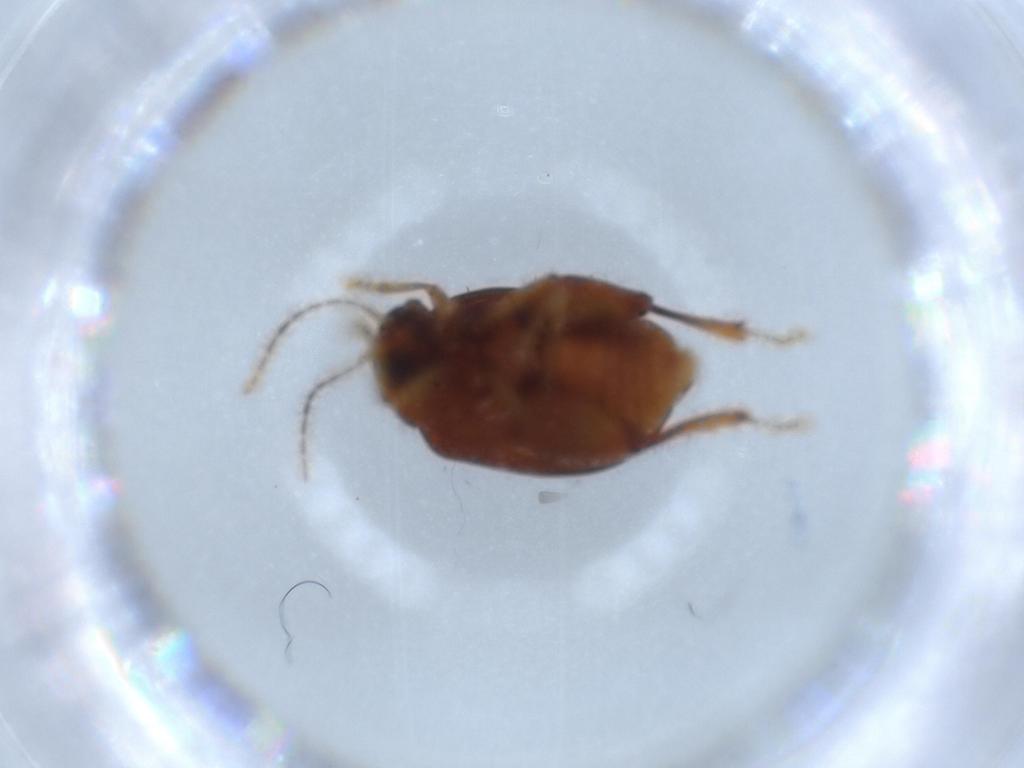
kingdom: Animalia
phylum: Arthropoda
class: Insecta
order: Coleoptera
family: Chrysomelidae
